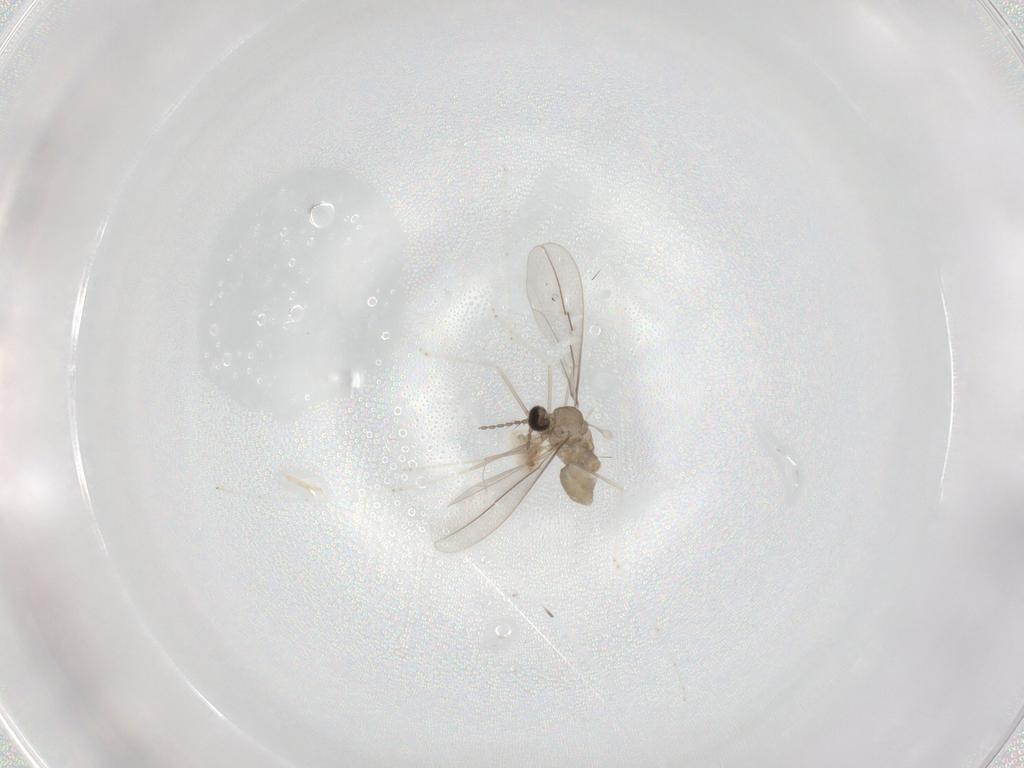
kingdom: Animalia
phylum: Arthropoda
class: Insecta
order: Diptera
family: Cecidomyiidae
